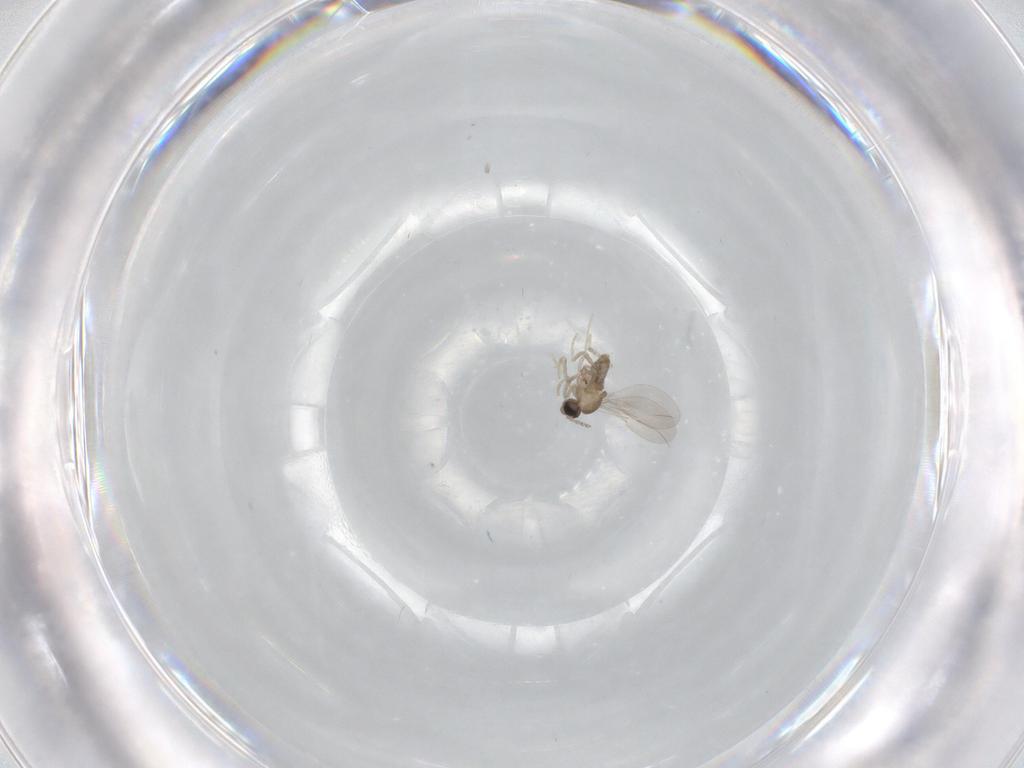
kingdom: Animalia
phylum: Arthropoda
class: Insecta
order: Diptera
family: Cecidomyiidae
